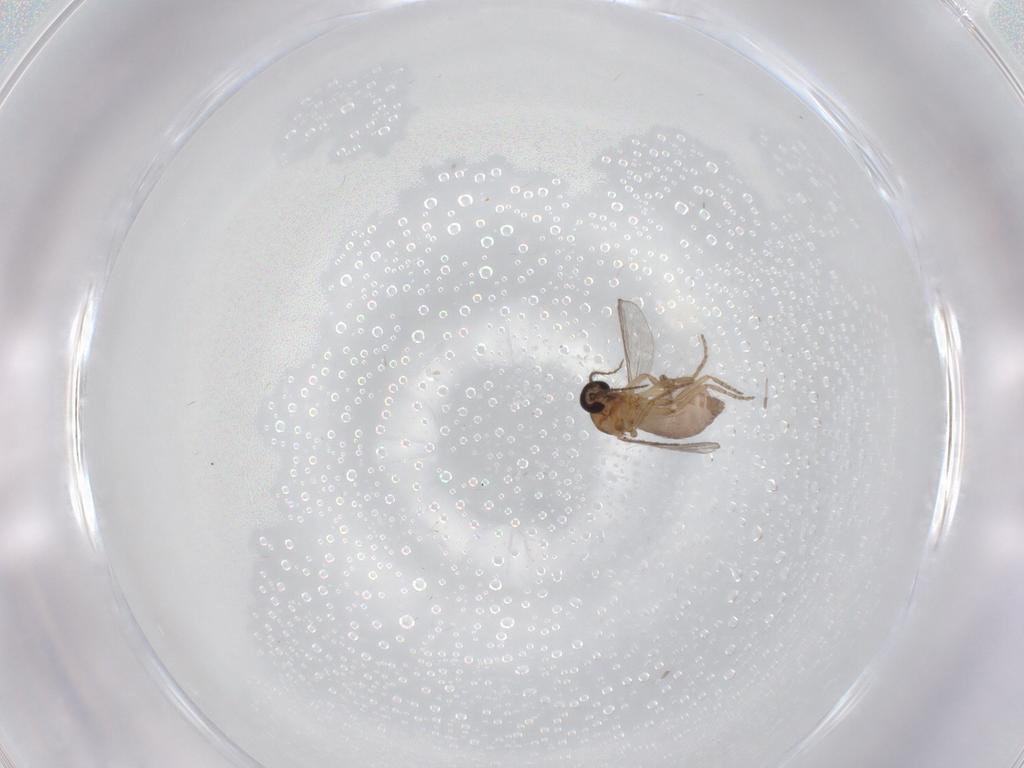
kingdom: Animalia
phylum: Arthropoda
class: Insecta
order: Diptera
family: Chironomidae
